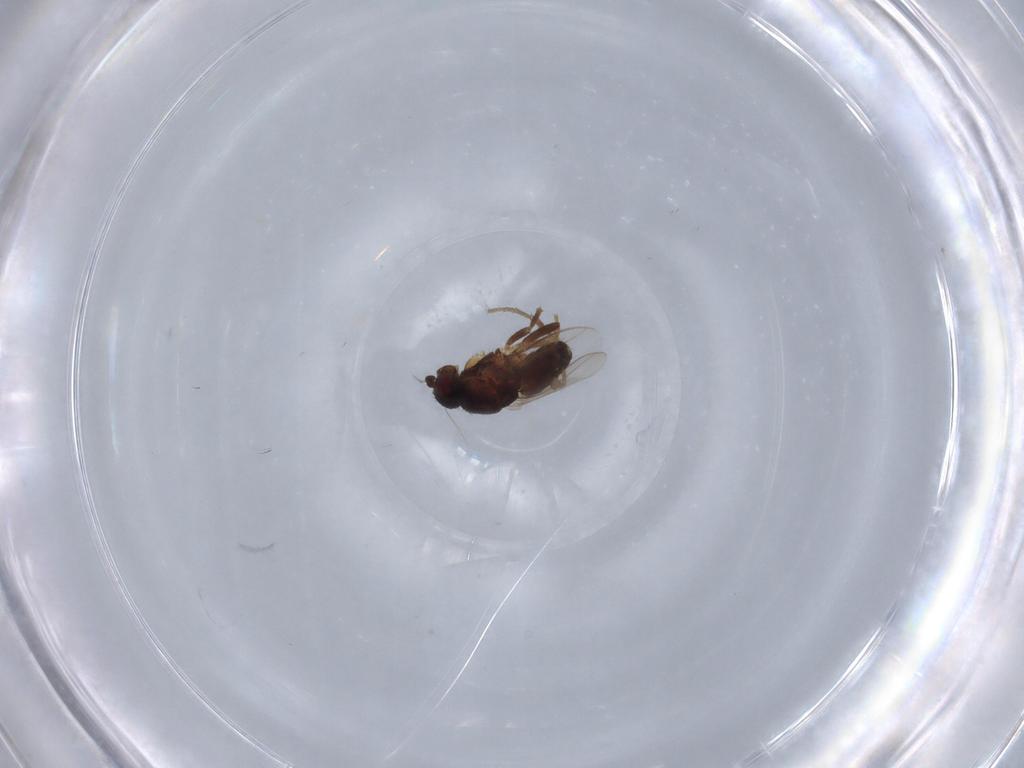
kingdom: Animalia
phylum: Arthropoda
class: Insecta
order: Diptera
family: Sphaeroceridae
